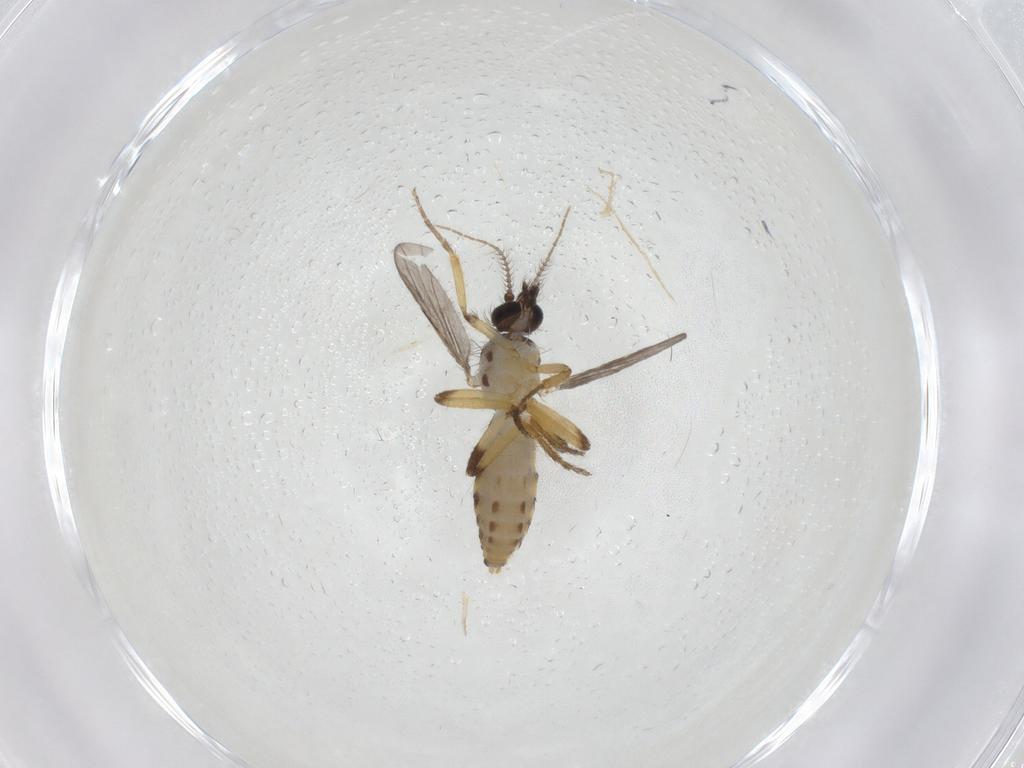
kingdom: Animalia
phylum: Arthropoda
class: Insecta
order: Diptera
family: Ceratopogonidae
